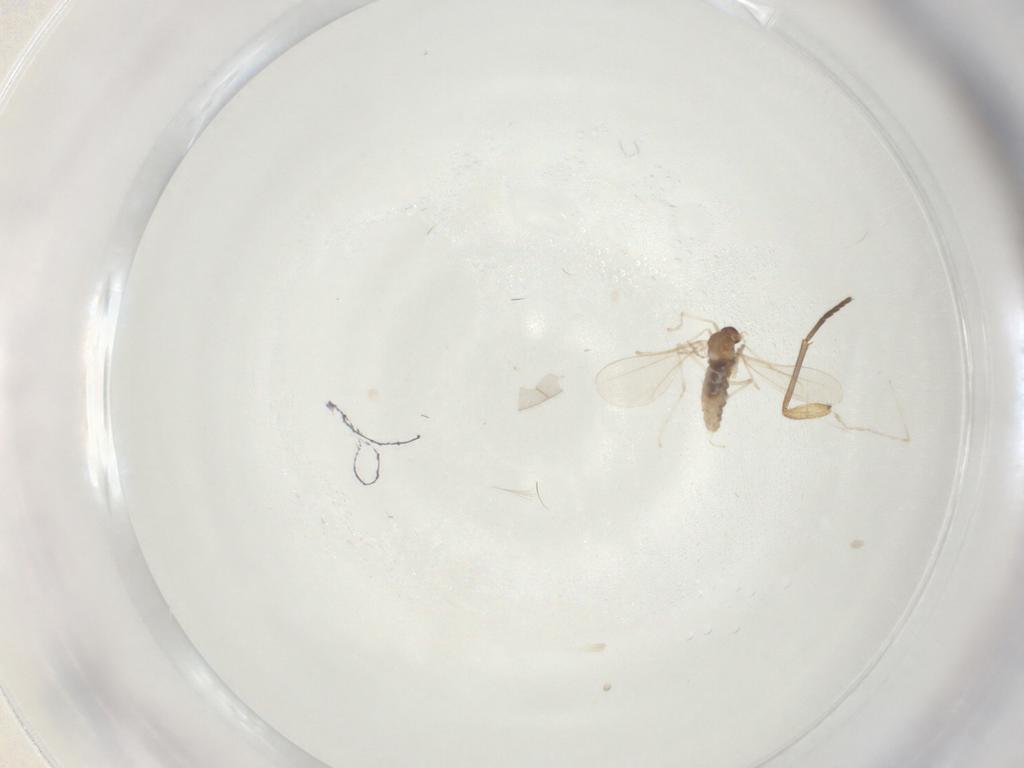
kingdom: Animalia
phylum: Arthropoda
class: Insecta
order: Diptera
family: Cecidomyiidae
